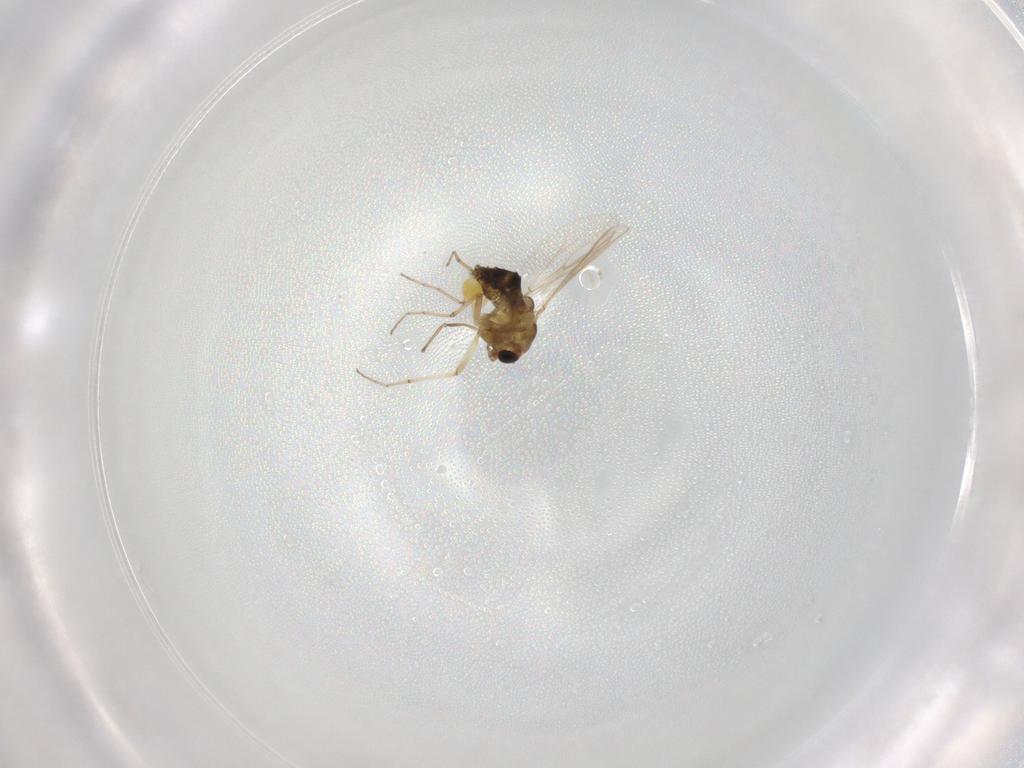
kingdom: Animalia
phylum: Arthropoda
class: Insecta
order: Diptera
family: Chironomidae
